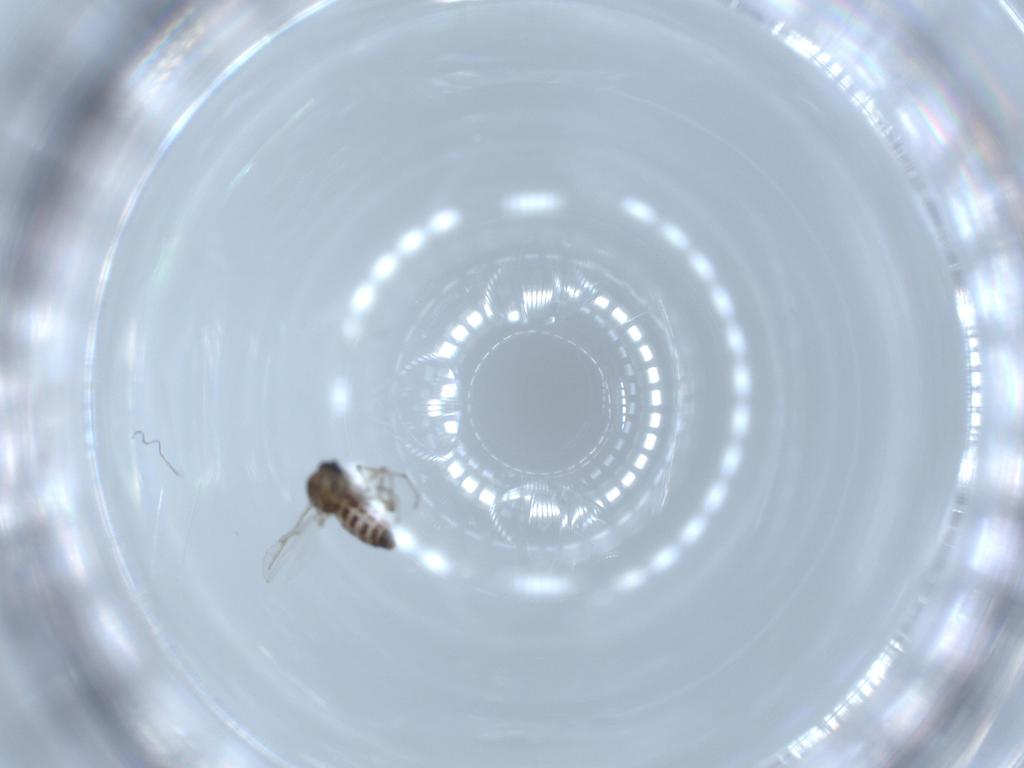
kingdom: Animalia
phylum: Arthropoda
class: Insecta
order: Diptera
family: Ceratopogonidae
